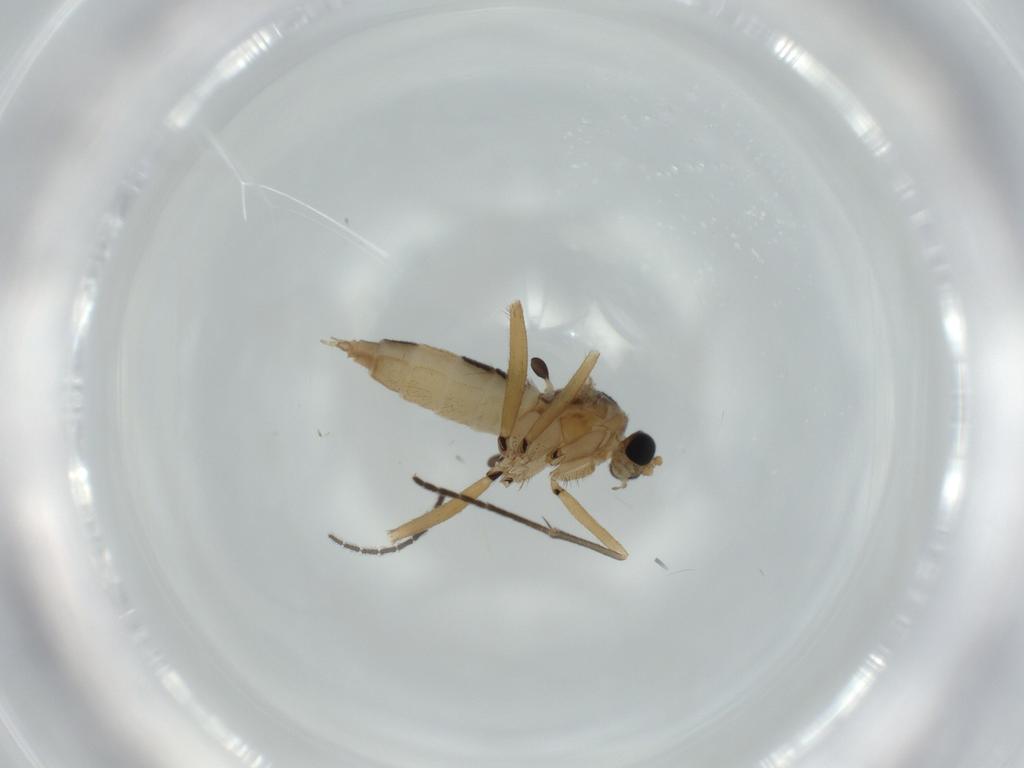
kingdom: Animalia
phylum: Arthropoda
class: Insecta
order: Diptera
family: Sciaridae
